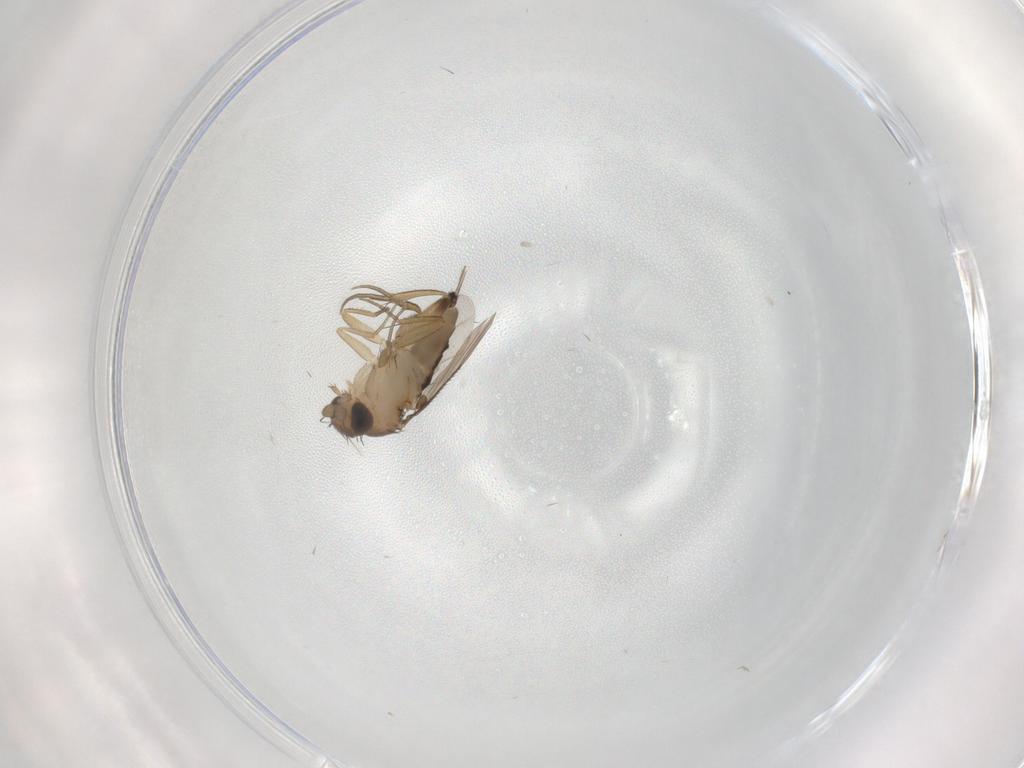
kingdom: Animalia
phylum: Arthropoda
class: Insecta
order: Diptera
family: Phoridae
